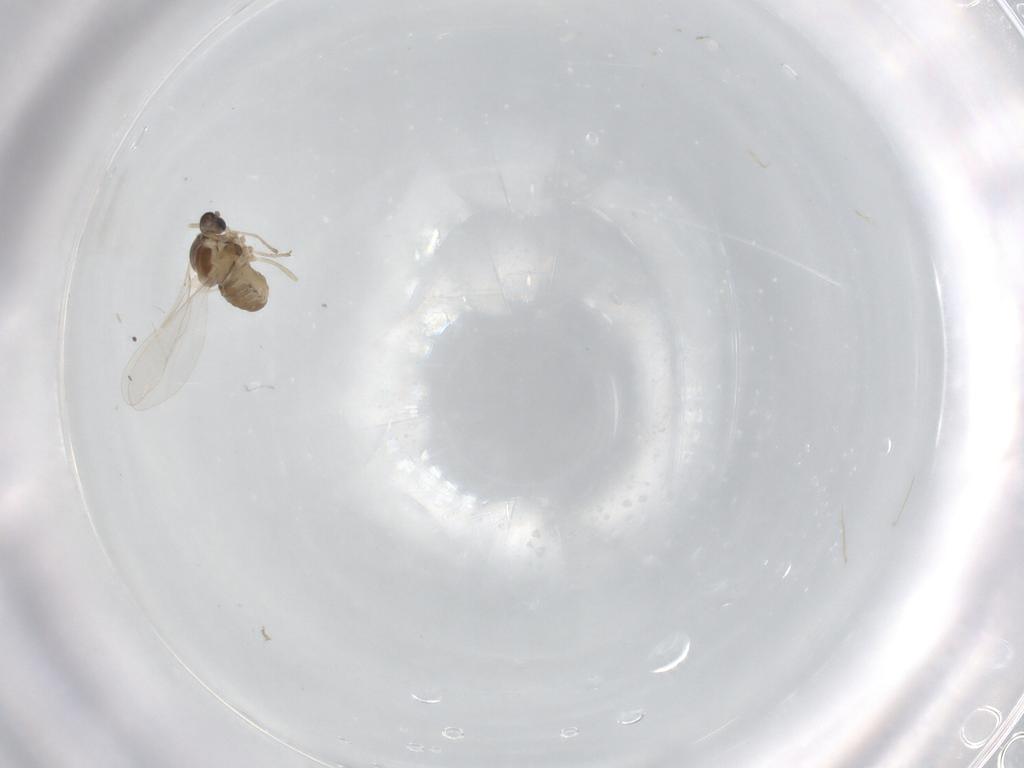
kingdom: Animalia
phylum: Arthropoda
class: Insecta
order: Diptera
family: Cecidomyiidae
